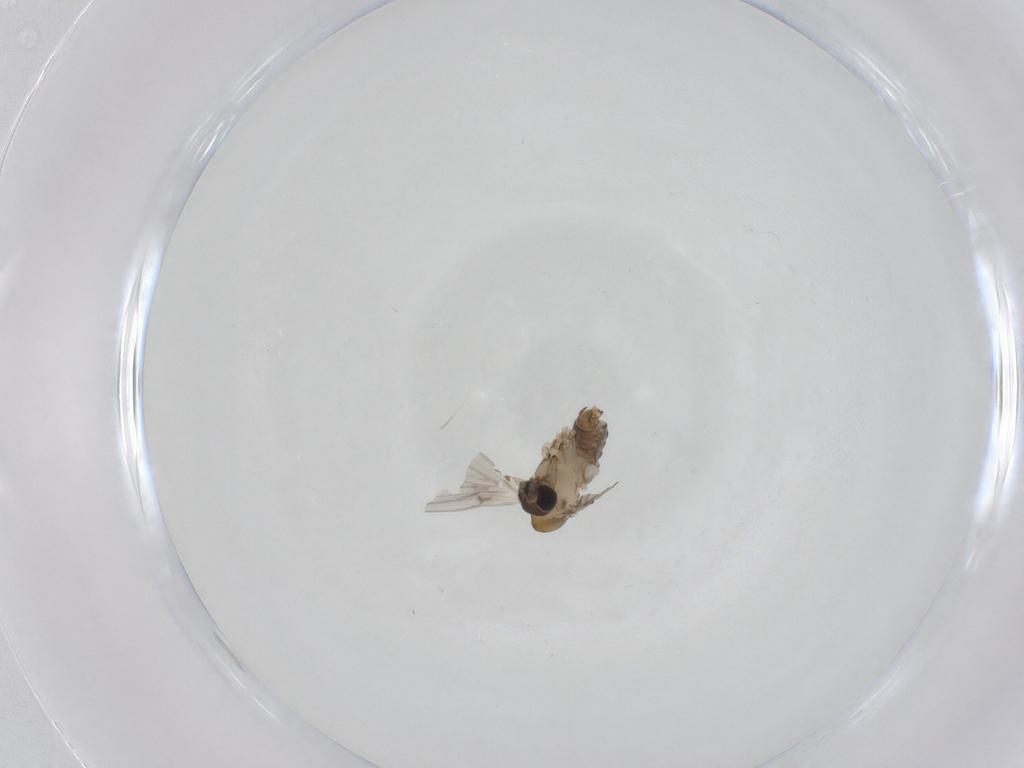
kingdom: Animalia
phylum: Arthropoda
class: Insecta
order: Diptera
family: Psychodidae
